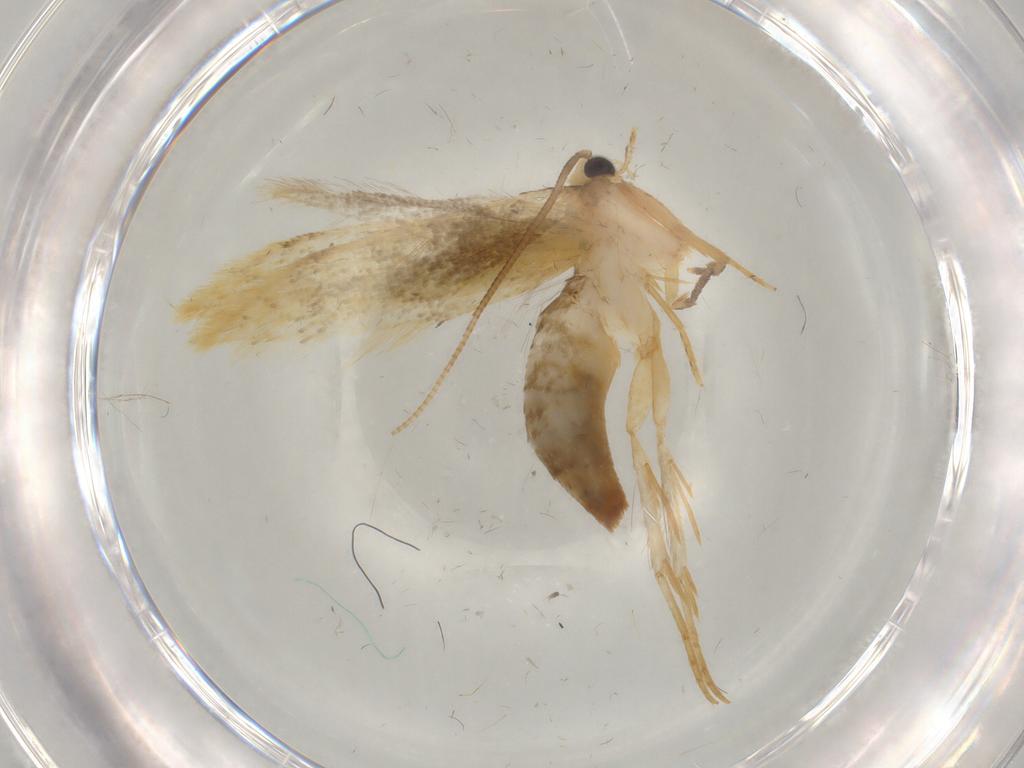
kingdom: Animalia
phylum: Arthropoda
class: Insecta
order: Lepidoptera
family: Tineidae
